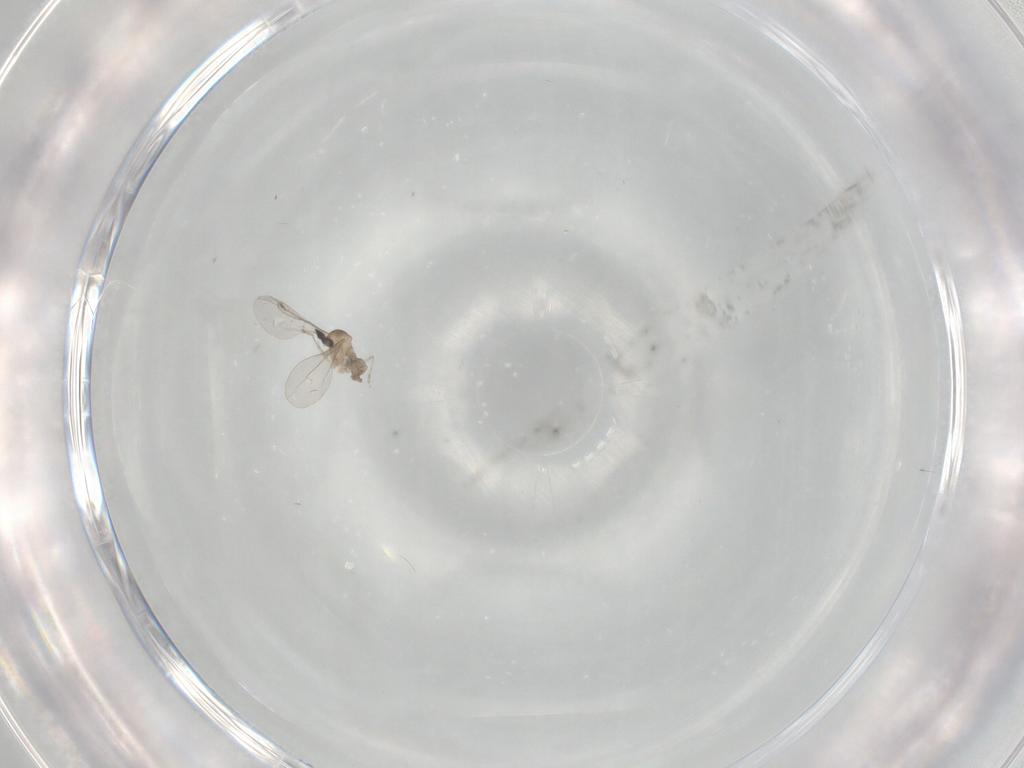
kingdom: Animalia
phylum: Arthropoda
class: Insecta
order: Diptera
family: Cecidomyiidae
